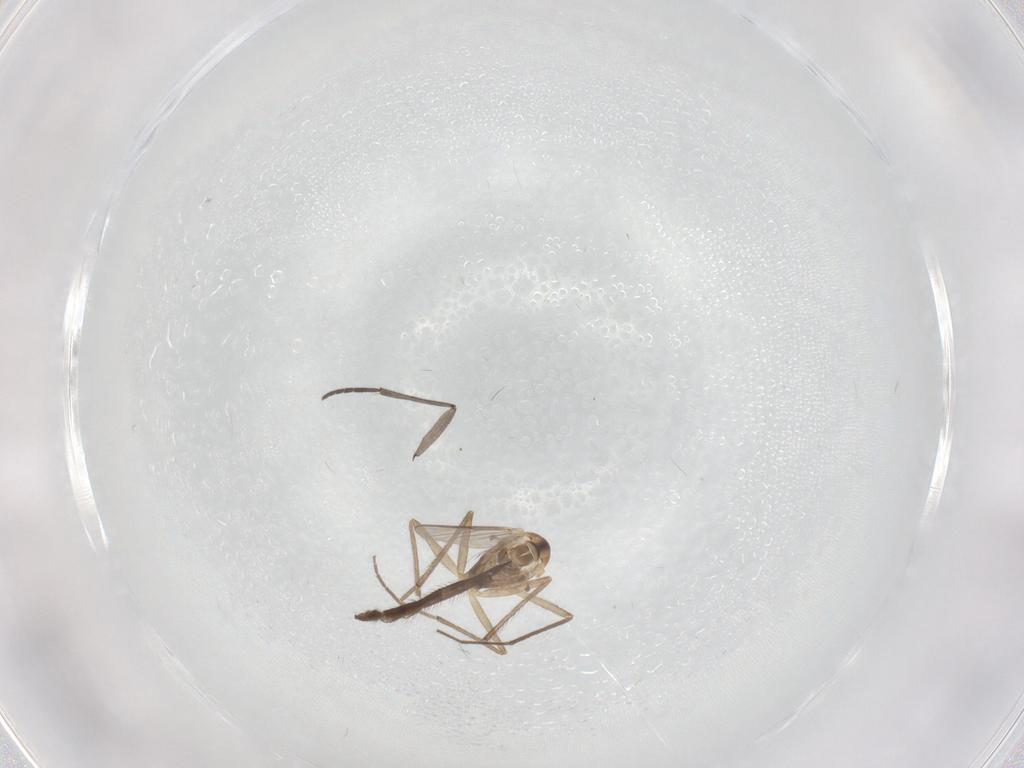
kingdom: Animalia
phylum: Arthropoda
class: Insecta
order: Diptera
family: Chironomidae
